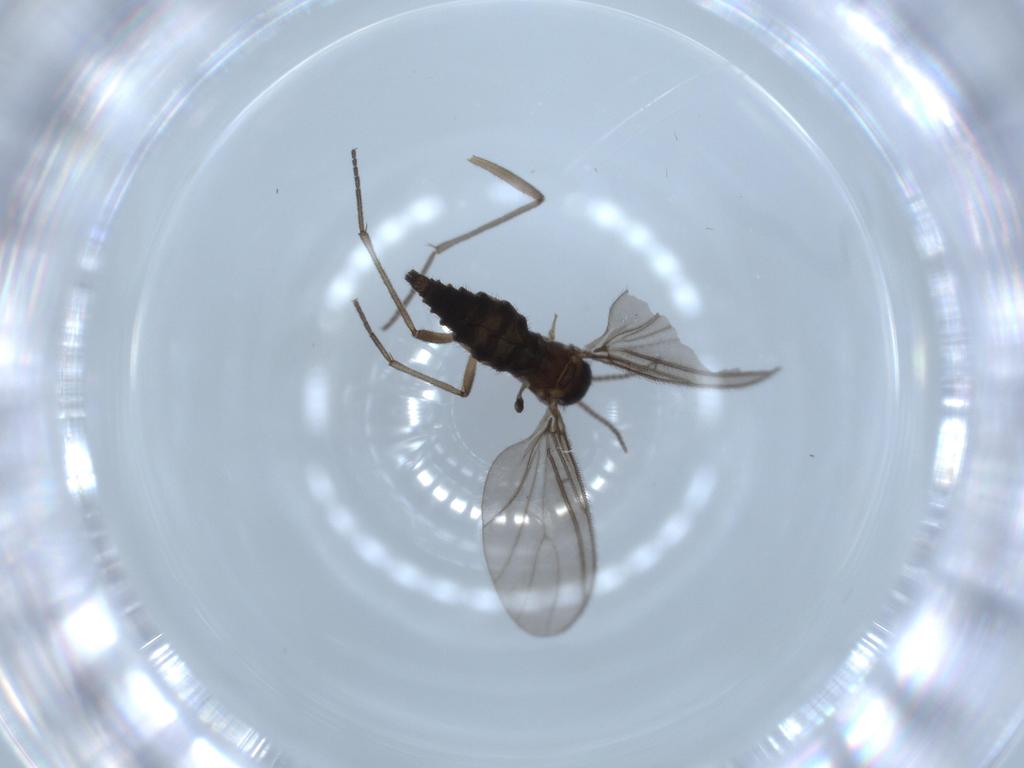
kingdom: Animalia
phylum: Arthropoda
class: Insecta
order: Diptera
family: Sciaridae
